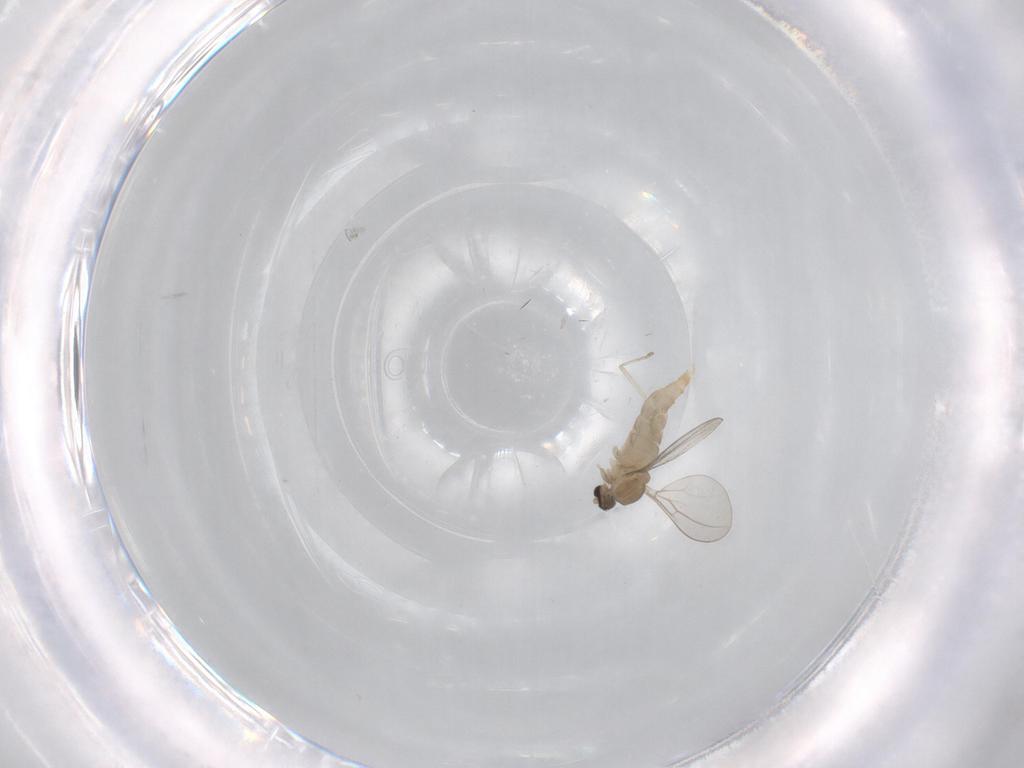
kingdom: Animalia
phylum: Arthropoda
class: Insecta
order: Diptera
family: Cecidomyiidae
